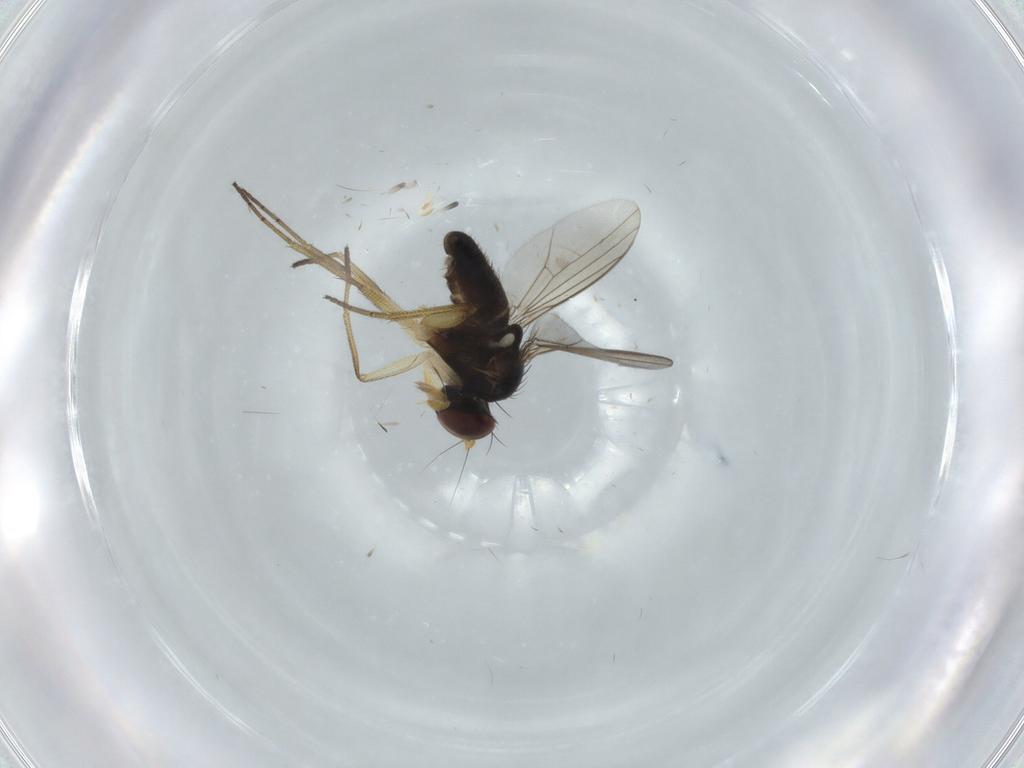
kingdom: Animalia
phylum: Arthropoda
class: Insecta
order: Diptera
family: Dolichopodidae
